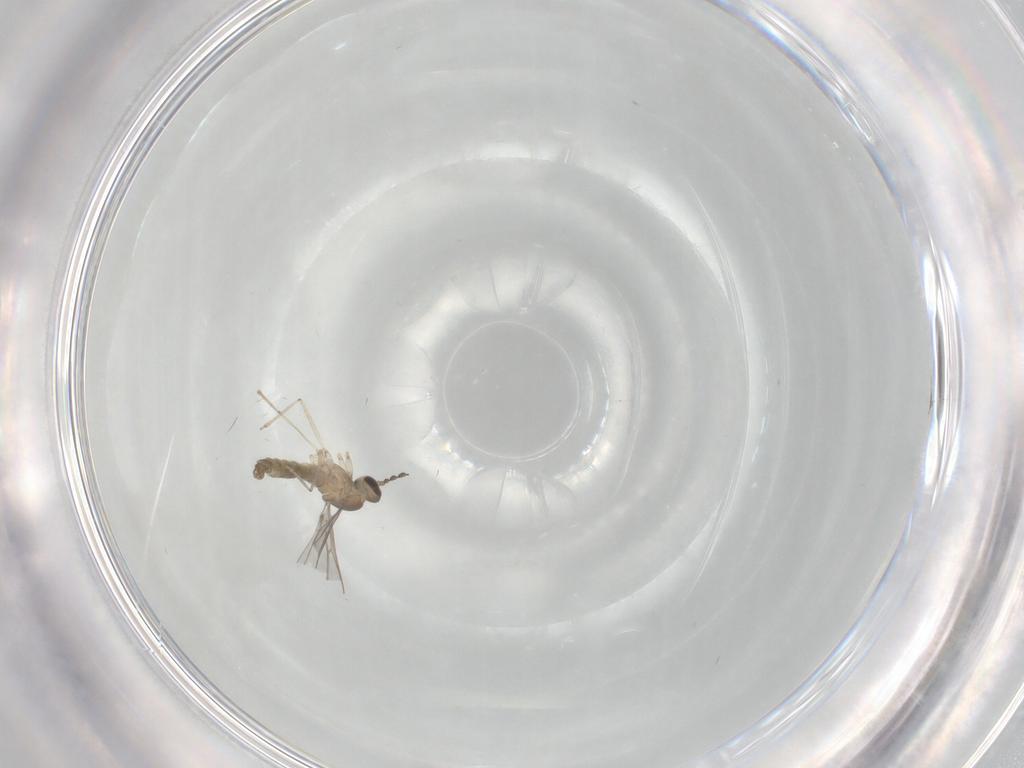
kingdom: Animalia
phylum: Arthropoda
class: Insecta
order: Diptera
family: Cecidomyiidae
